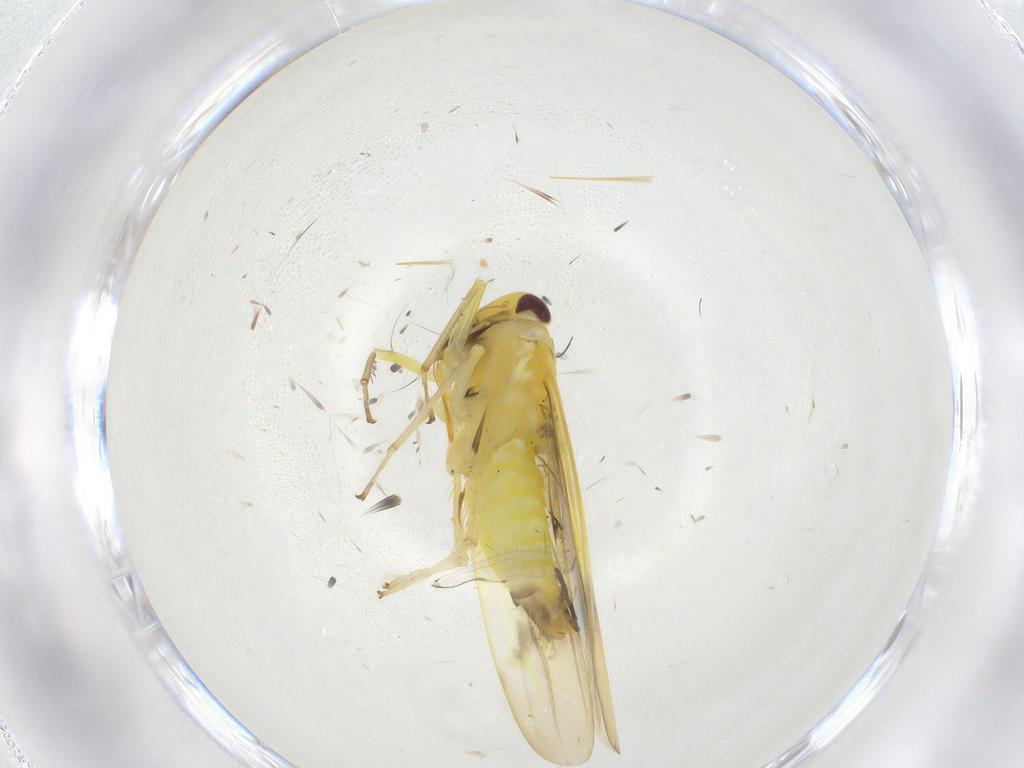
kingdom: Animalia
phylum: Arthropoda
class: Insecta
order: Hemiptera
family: Cicadellidae
